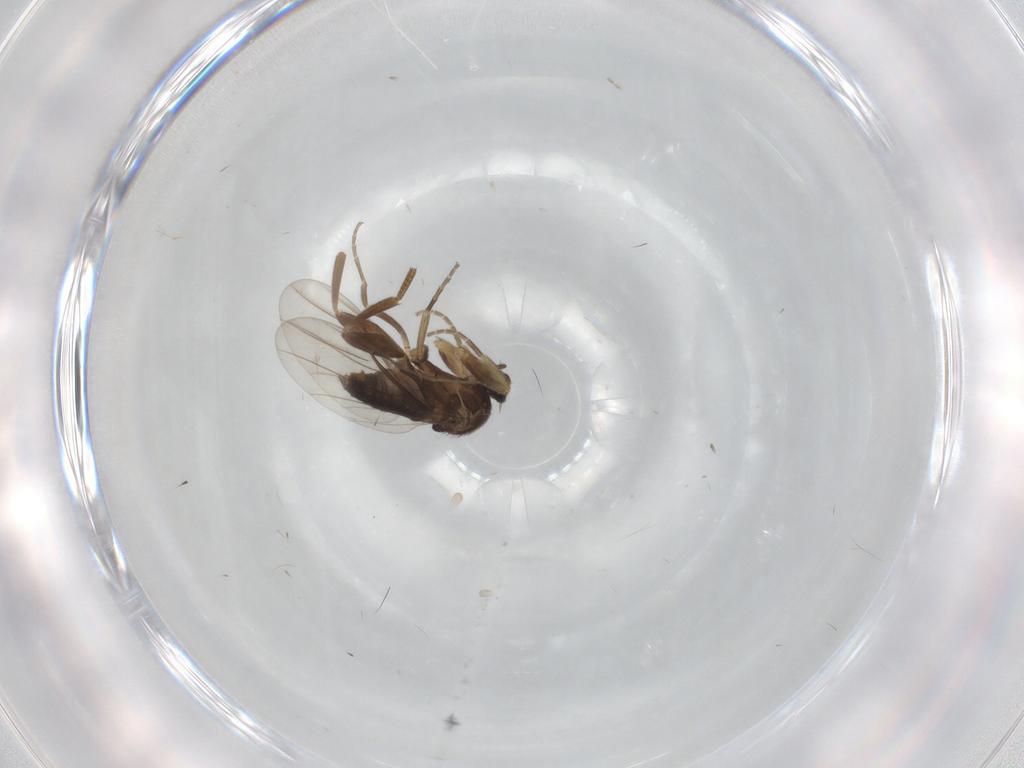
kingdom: Animalia
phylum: Arthropoda
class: Insecta
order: Diptera
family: Phoridae
